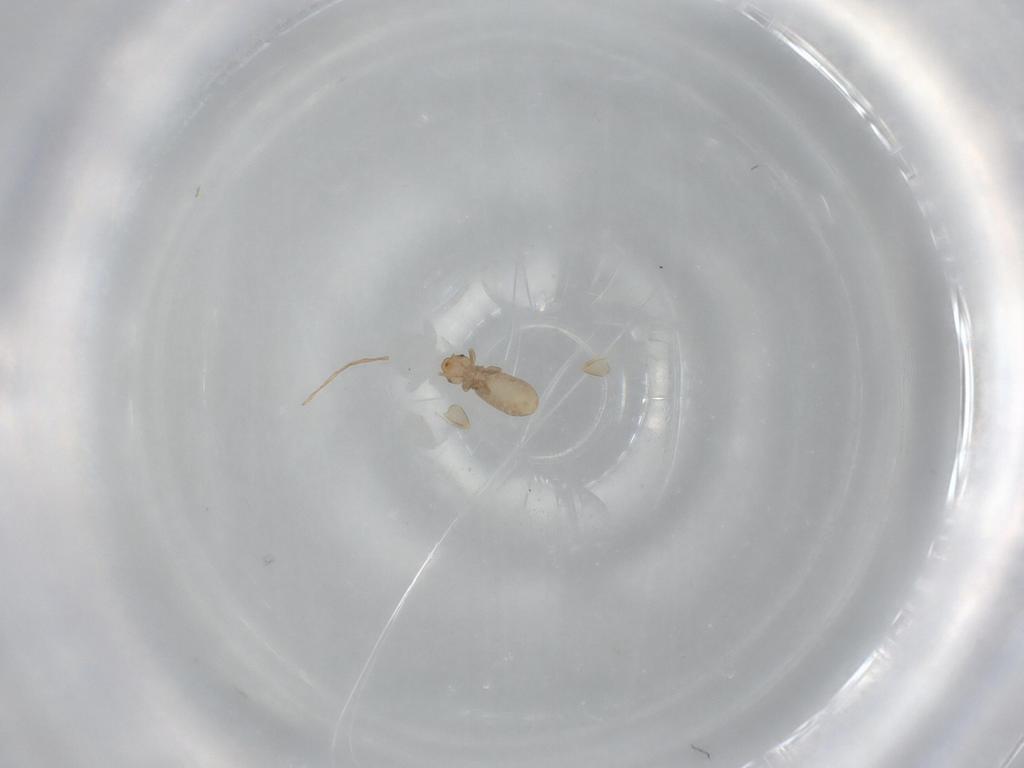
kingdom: Animalia
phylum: Arthropoda
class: Insecta
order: Psocodea
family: Liposcelididae
